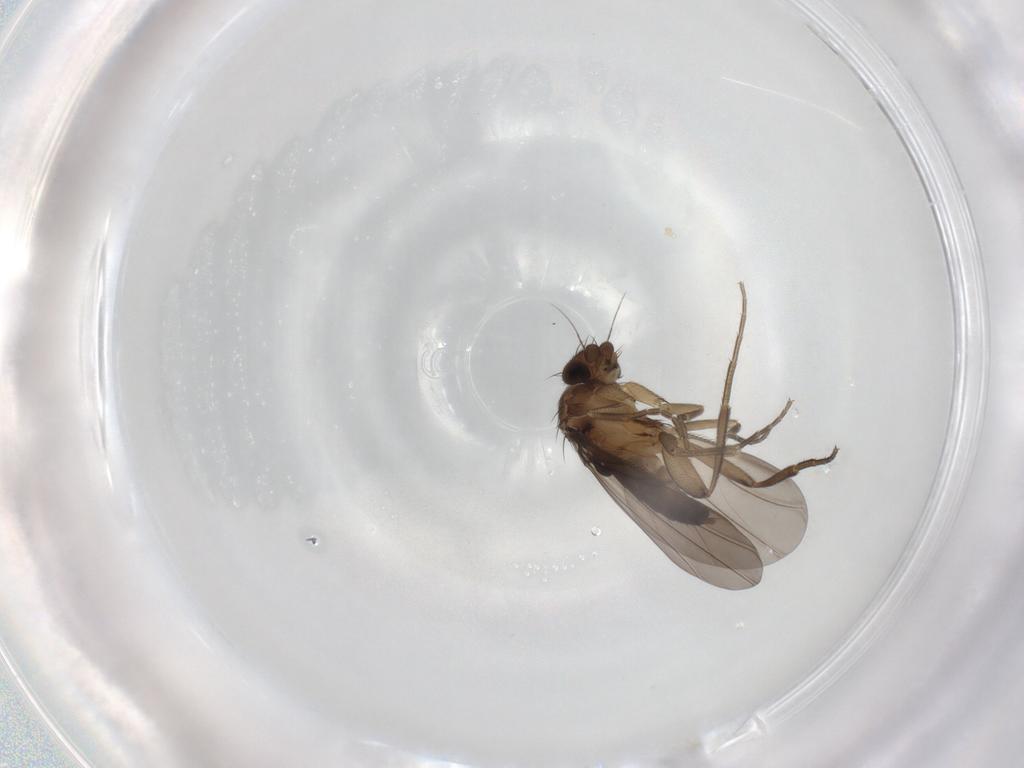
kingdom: Animalia
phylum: Arthropoda
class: Insecta
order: Diptera
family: Phoridae
